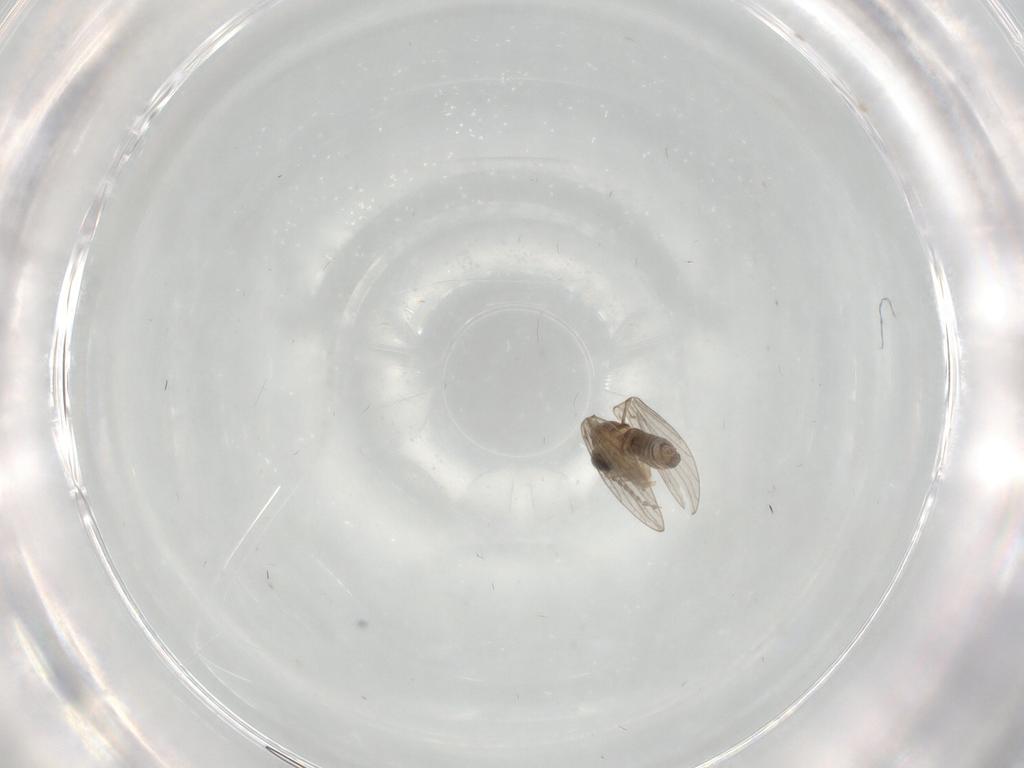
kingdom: Animalia
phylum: Arthropoda
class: Insecta
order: Diptera
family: Psychodidae
